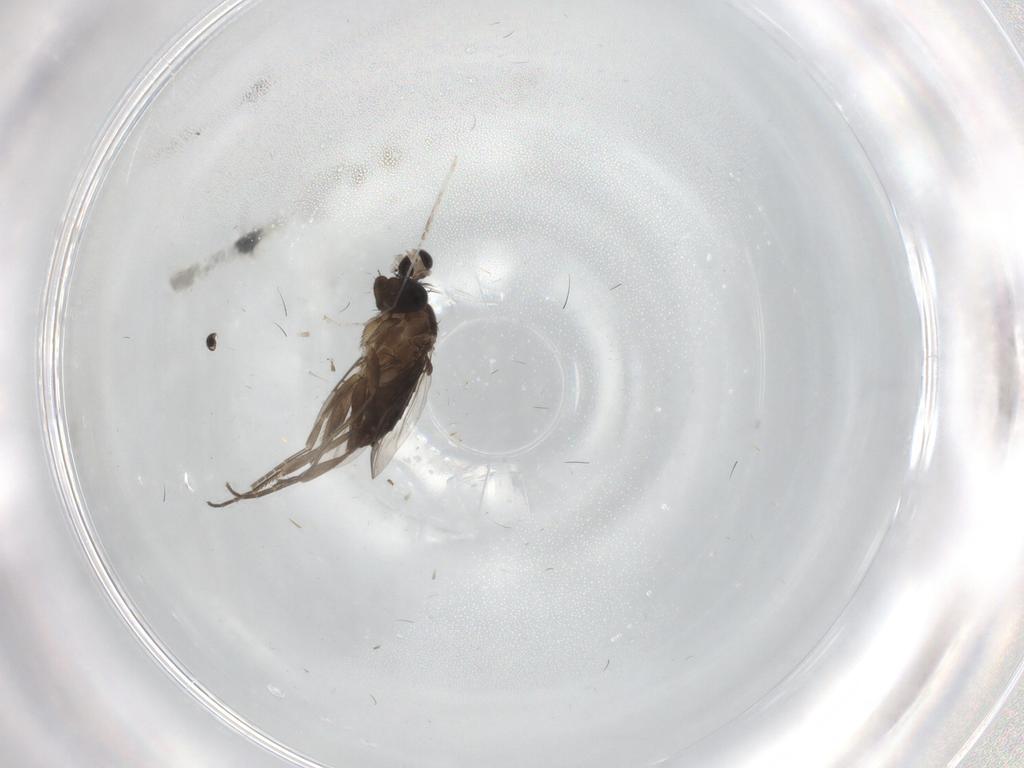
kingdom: Animalia
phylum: Arthropoda
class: Insecta
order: Diptera
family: Phoridae
